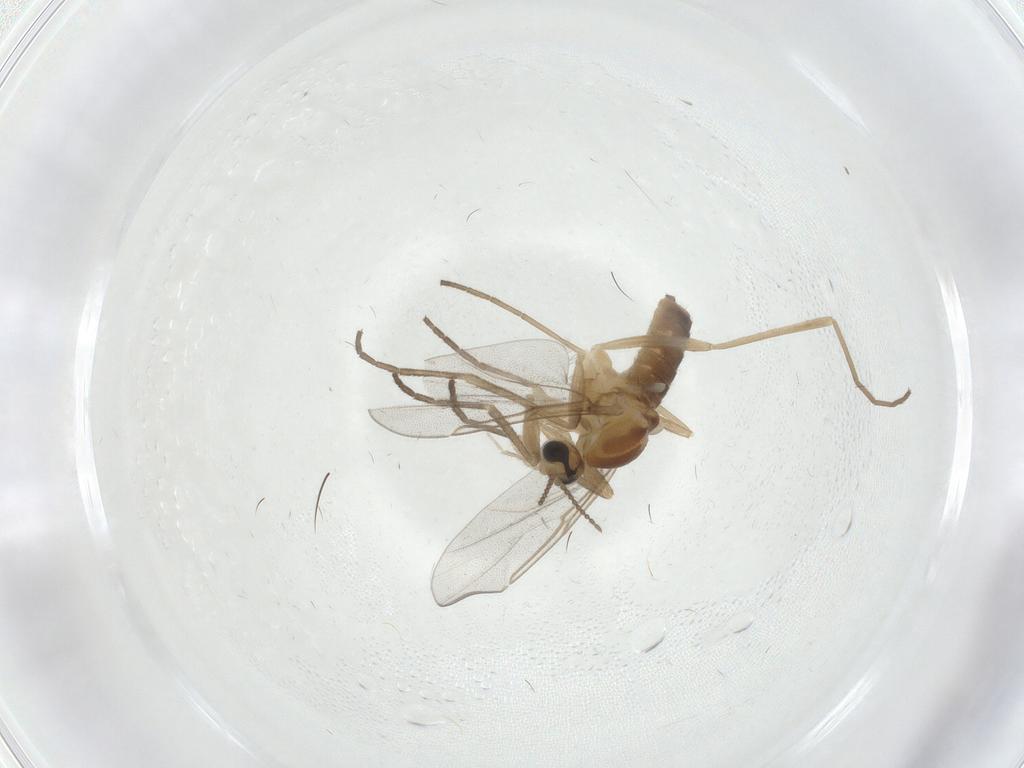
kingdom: Animalia
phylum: Arthropoda
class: Insecta
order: Diptera
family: Cecidomyiidae
